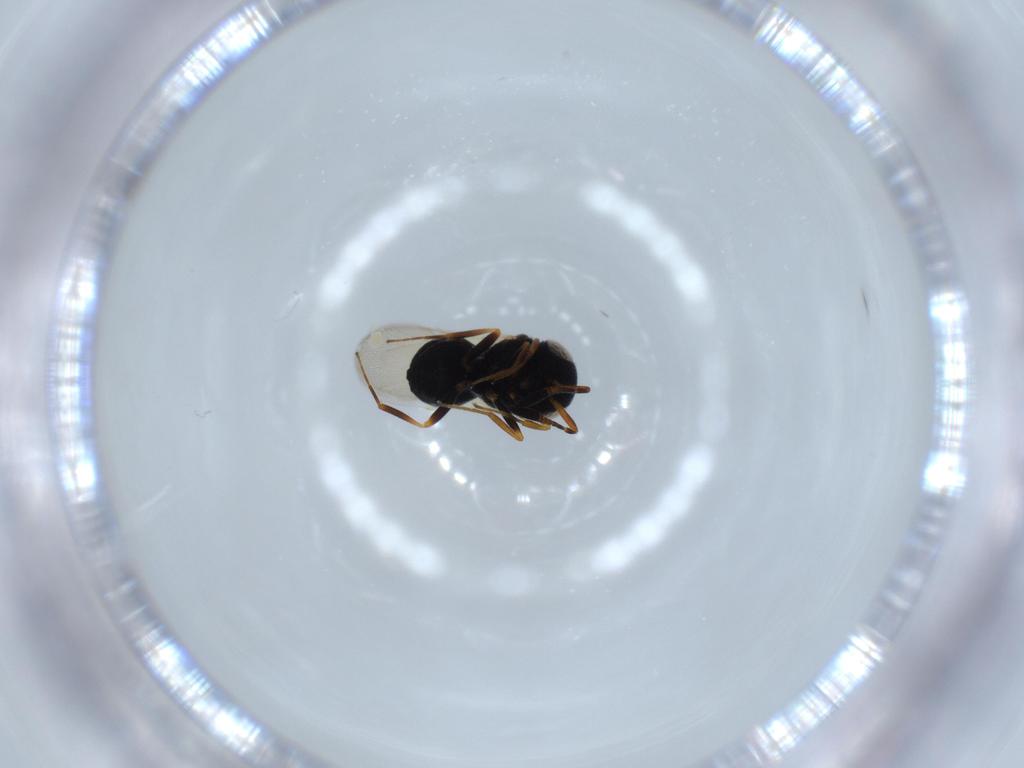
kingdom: Animalia
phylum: Arthropoda
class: Insecta
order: Hymenoptera
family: Scelionidae
